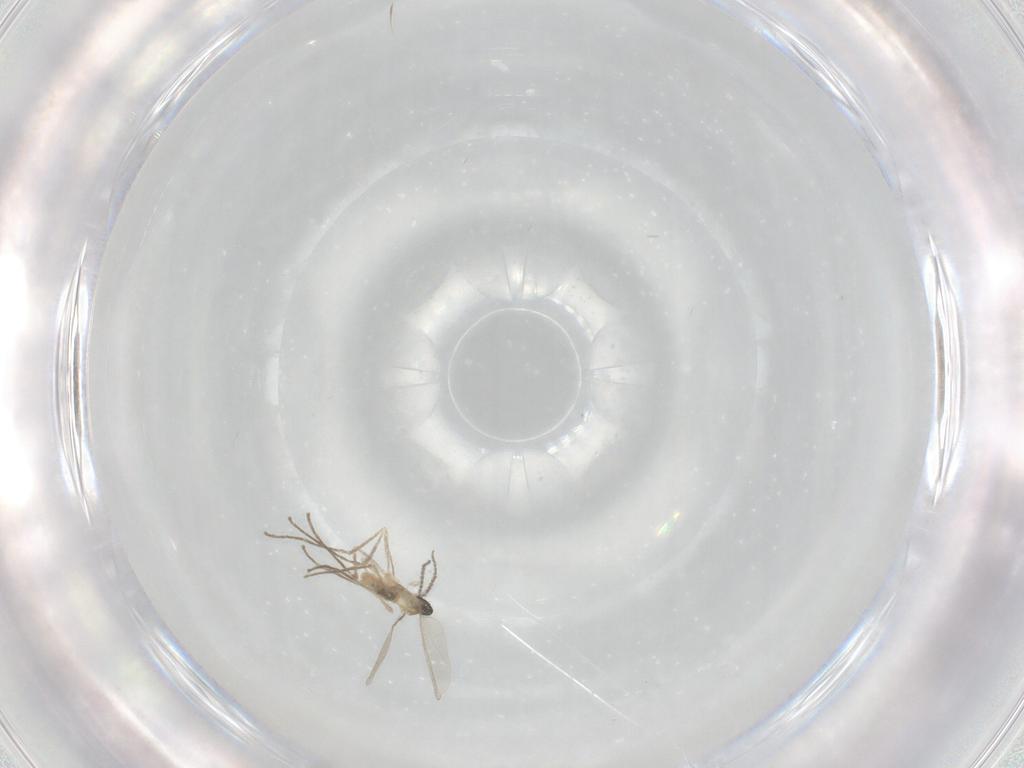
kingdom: Animalia
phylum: Arthropoda
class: Insecta
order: Diptera
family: Cecidomyiidae
